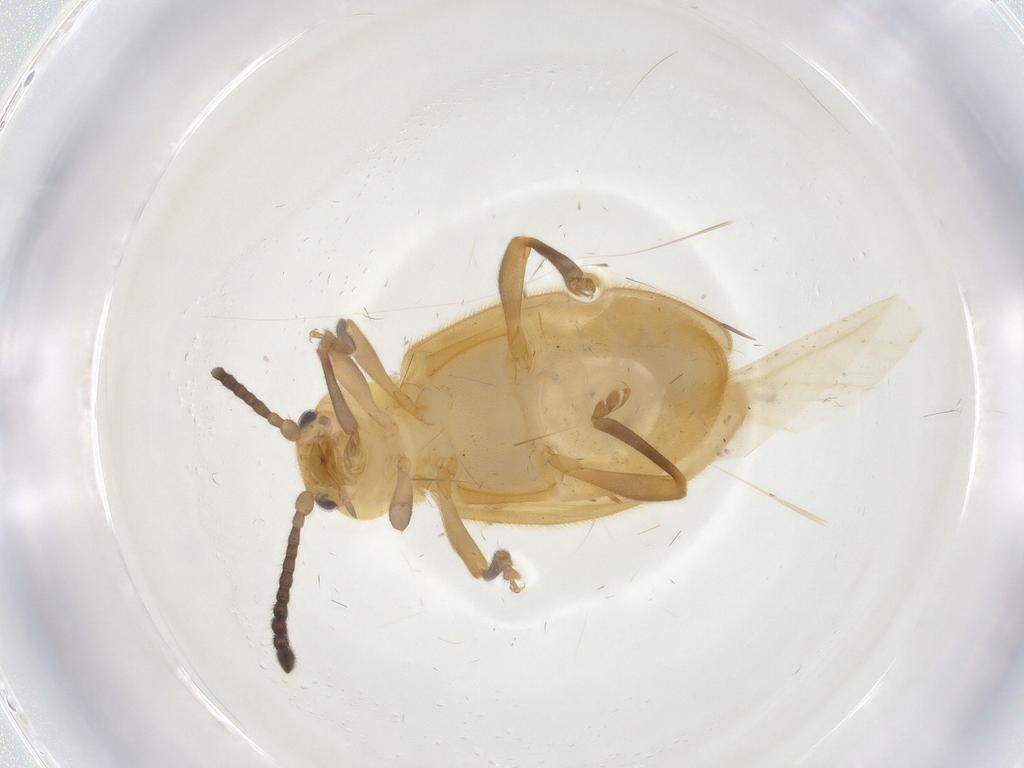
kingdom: Animalia
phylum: Arthropoda
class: Insecta
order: Coleoptera
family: Endomychidae
